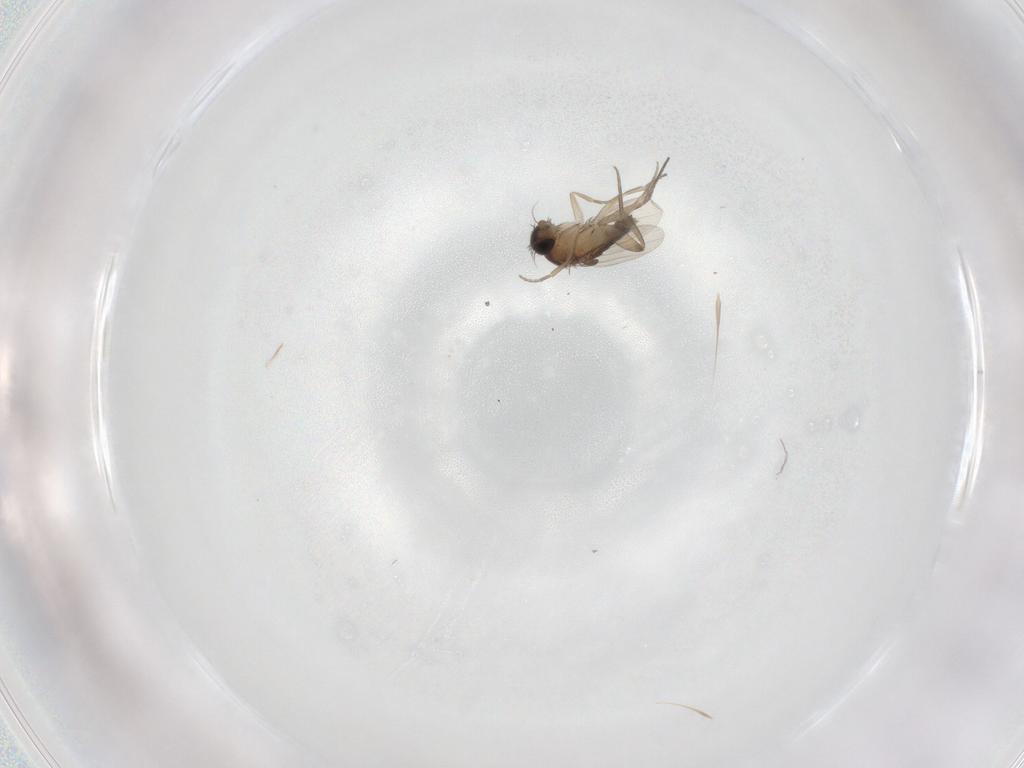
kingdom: Animalia
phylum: Arthropoda
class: Insecta
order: Diptera
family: Phoridae
